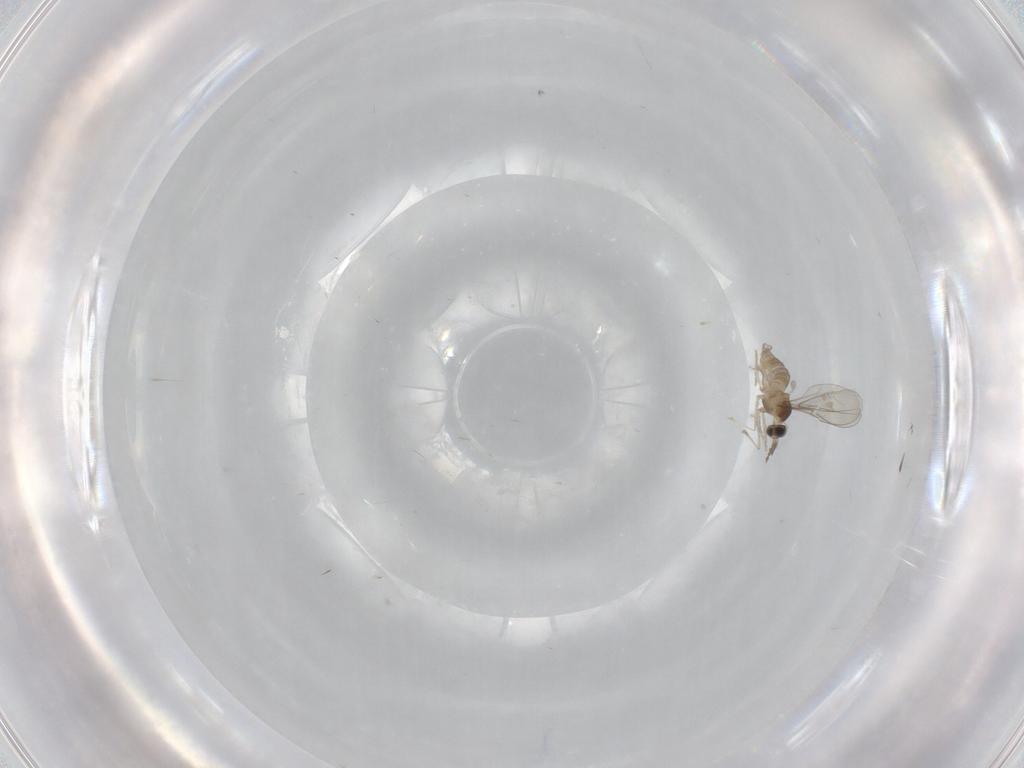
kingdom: Animalia
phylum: Arthropoda
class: Insecta
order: Diptera
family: Cecidomyiidae
